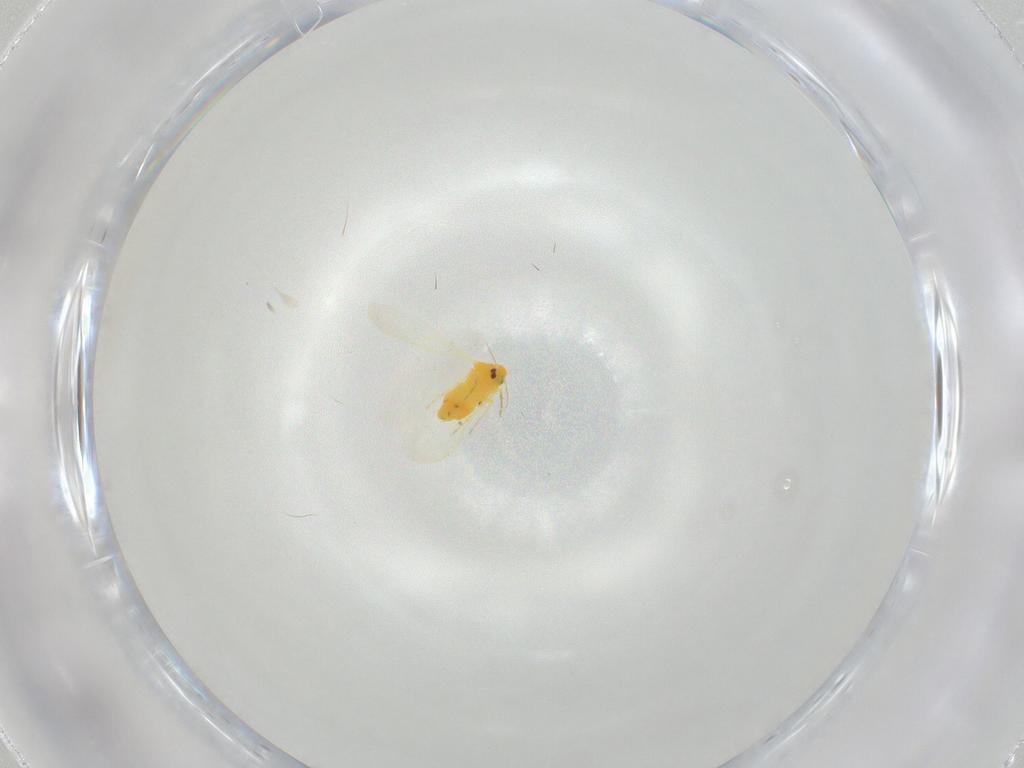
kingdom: Animalia
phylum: Arthropoda
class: Insecta
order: Hemiptera
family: Aleyrodidae
